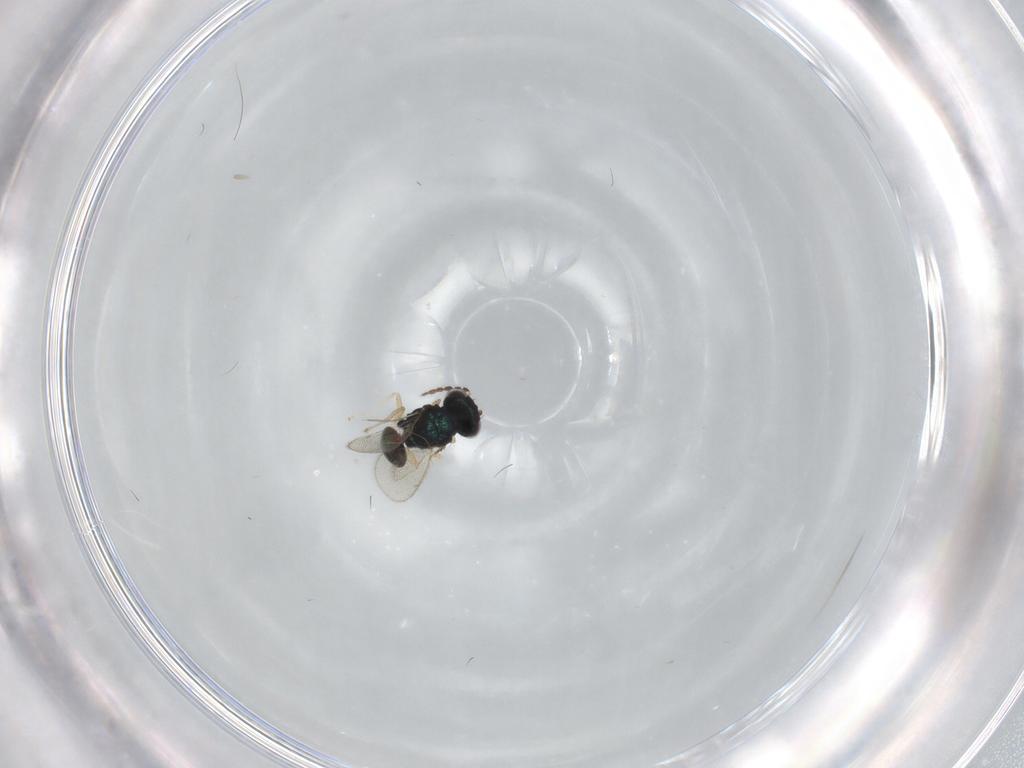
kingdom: Animalia
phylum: Arthropoda
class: Insecta
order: Hymenoptera
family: Eulophidae
